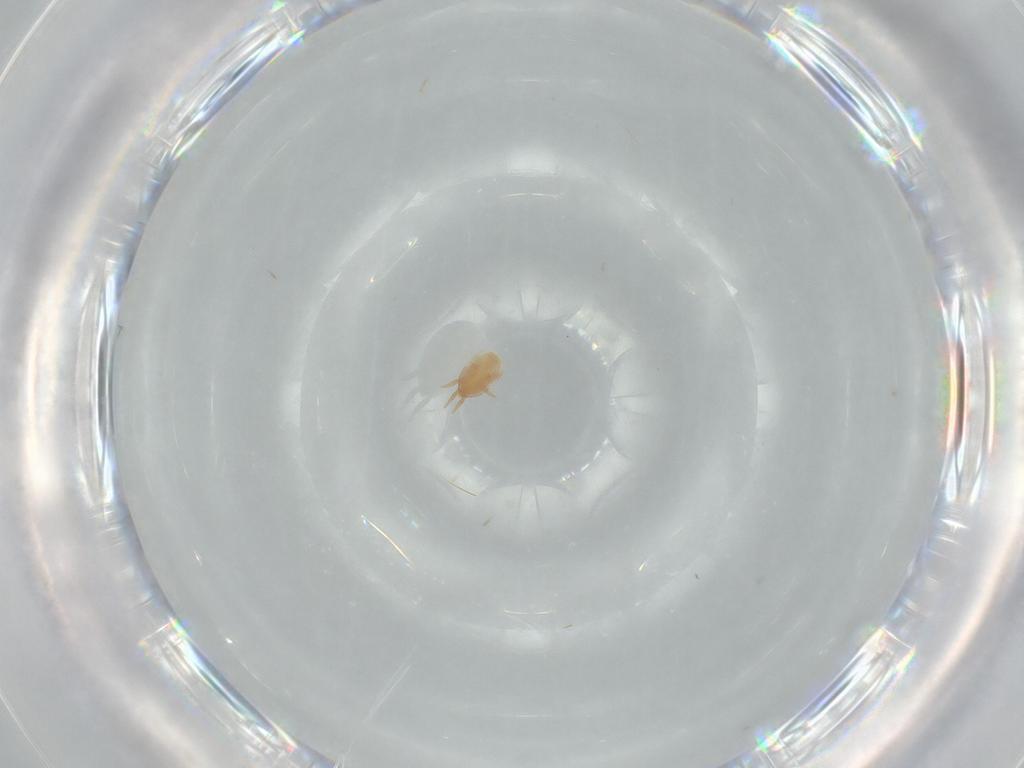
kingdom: Animalia
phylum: Arthropoda
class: Arachnida
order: Mesostigmata
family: Dinychidae
